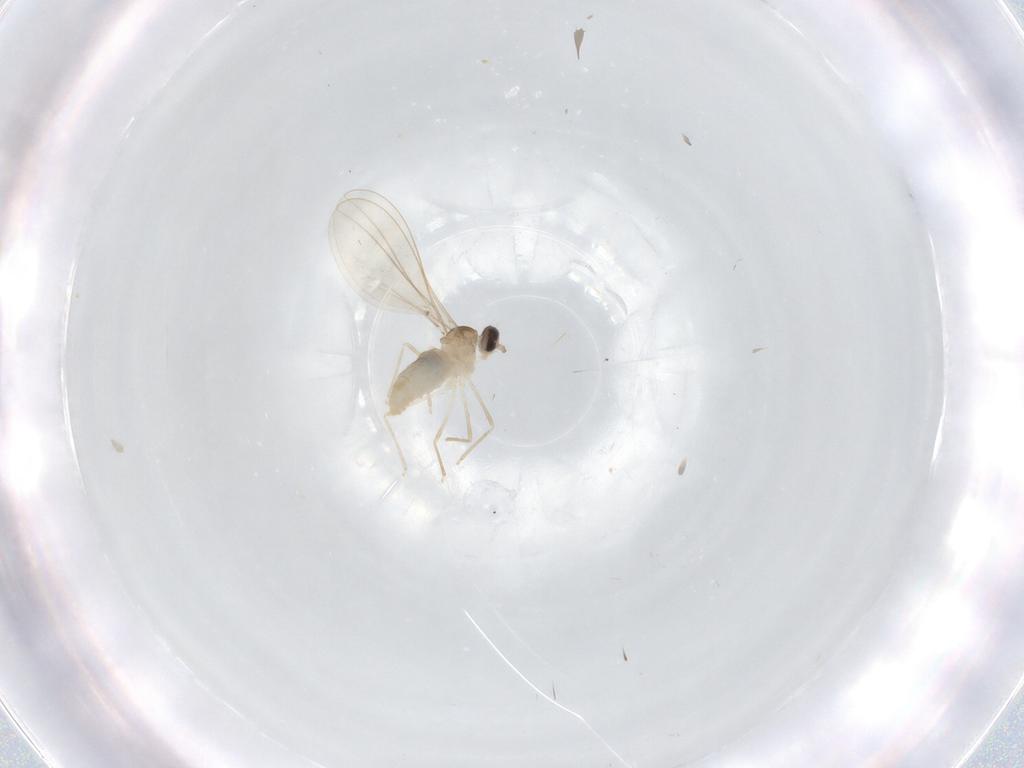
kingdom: Animalia
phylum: Arthropoda
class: Insecta
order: Diptera
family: Cecidomyiidae
